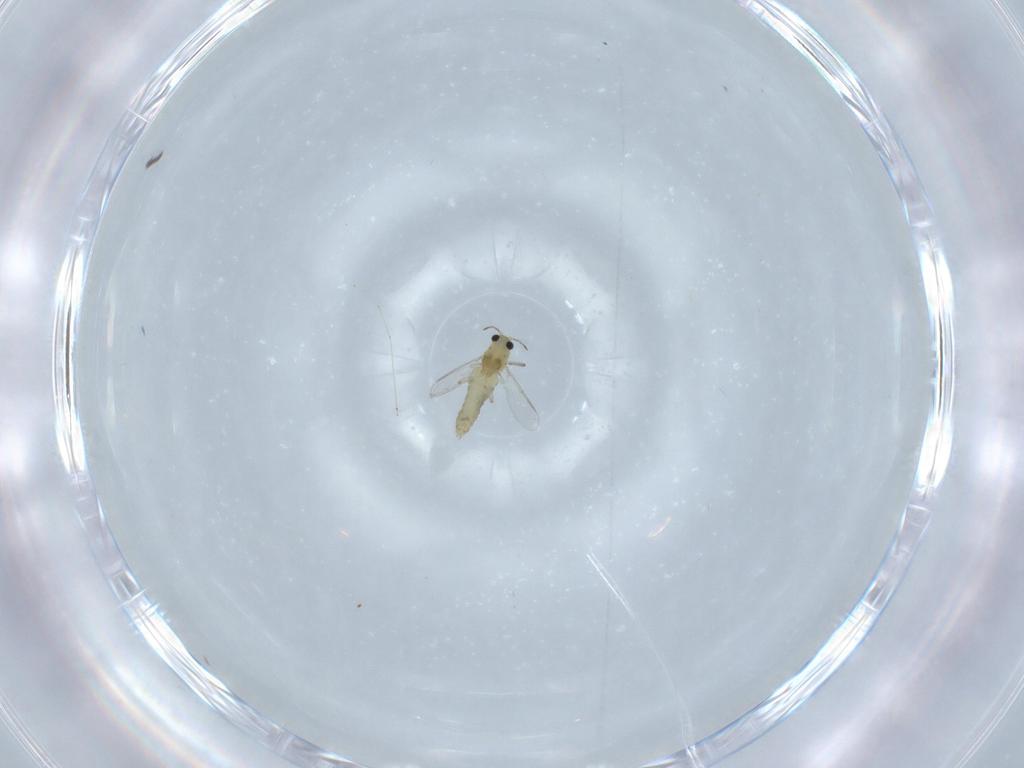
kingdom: Animalia
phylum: Arthropoda
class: Insecta
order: Diptera
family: Chironomidae
